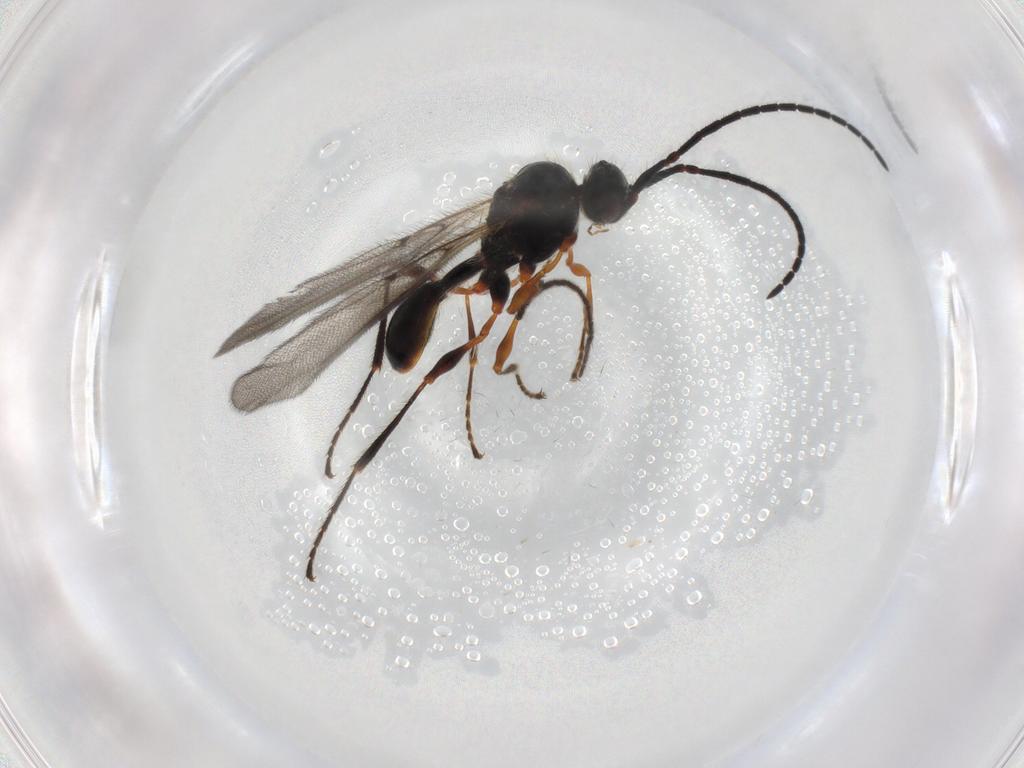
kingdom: Animalia
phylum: Arthropoda
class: Insecta
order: Hymenoptera
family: Diapriidae
